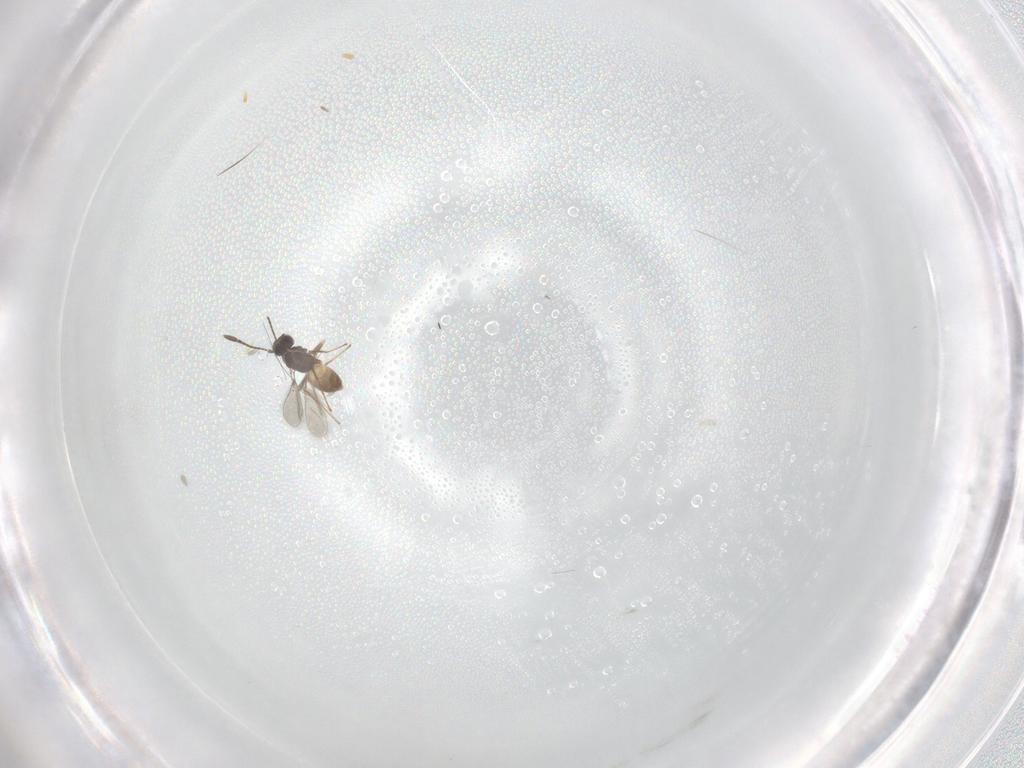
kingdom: Animalia
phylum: Arthropoda
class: Insecta
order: Hymenoptera
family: Mymaridae
